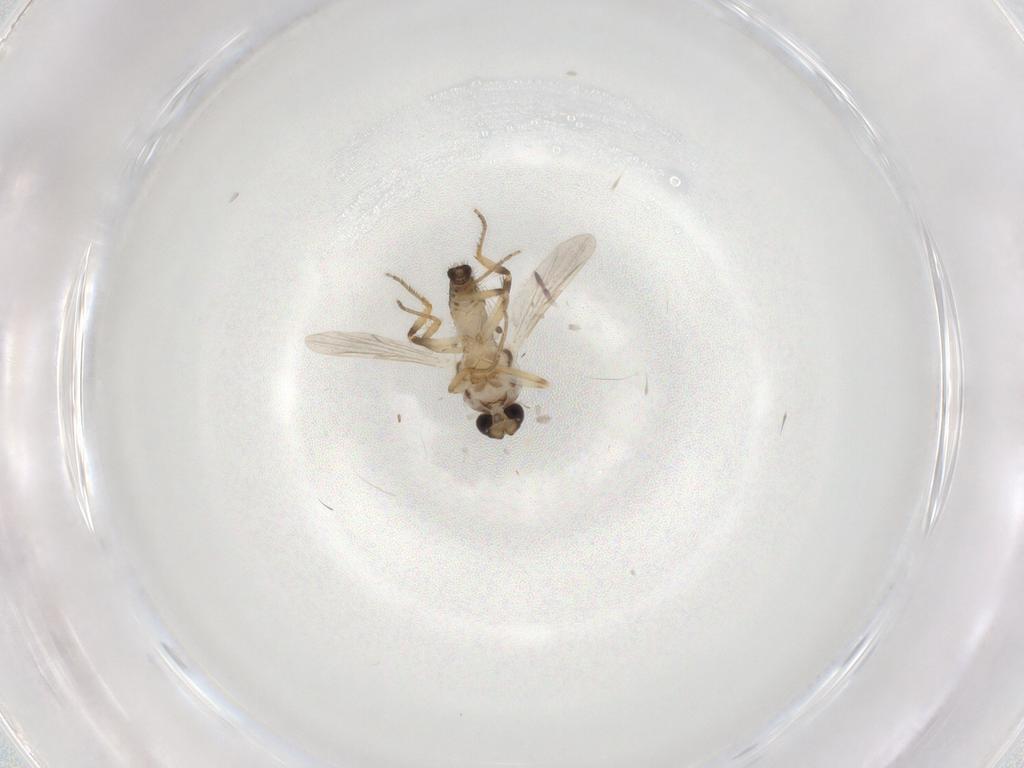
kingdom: Animalia
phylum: Arthropoda
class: Insecta
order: Diptera
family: Ceratopogonidae
